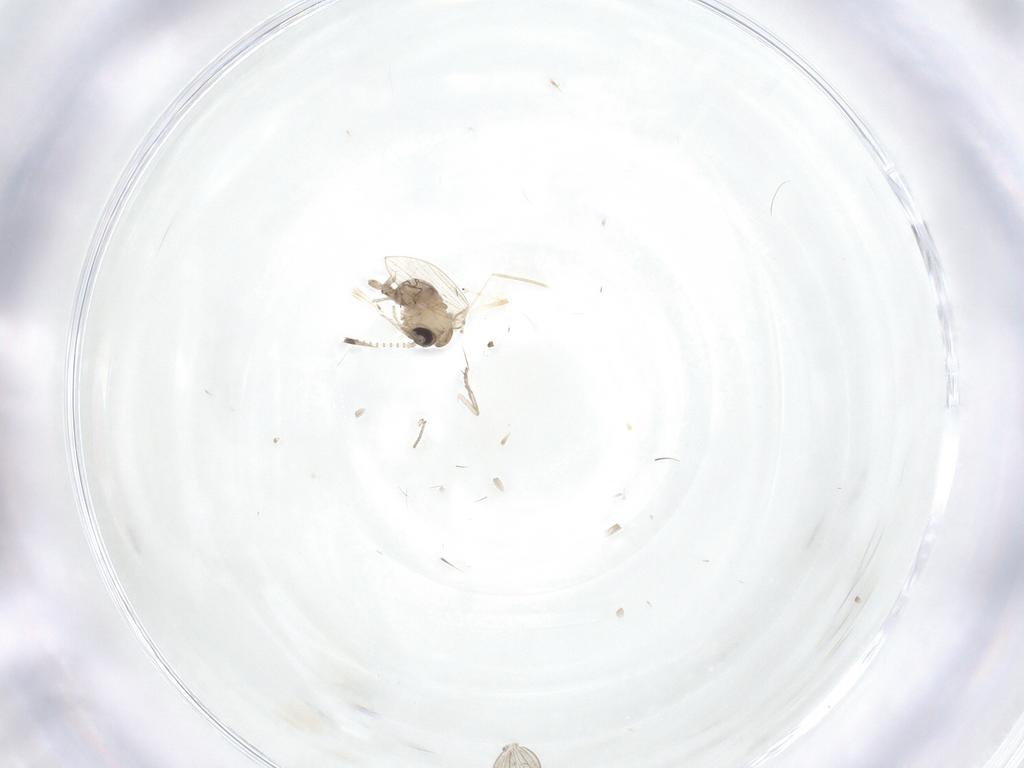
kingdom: Animalia
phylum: Arthropoda
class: Insecta
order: Diptera
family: Psychodidae
